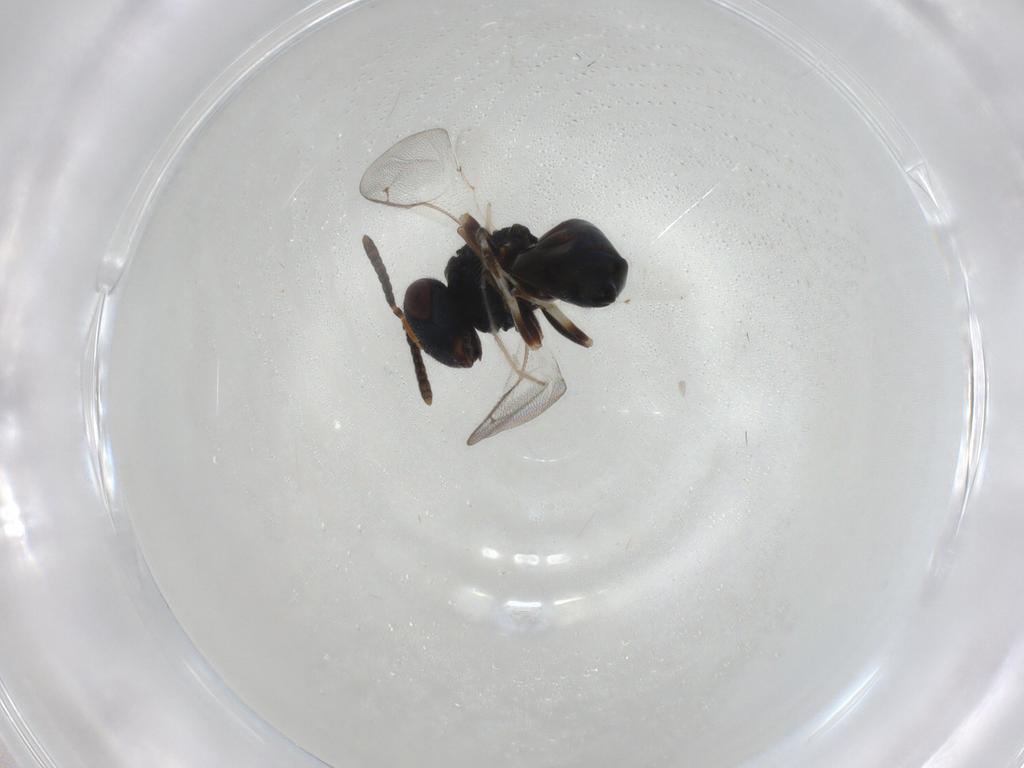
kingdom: Animalia
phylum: Arthropoda
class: Insecta
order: Hymenoptera
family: Pteromalidae
